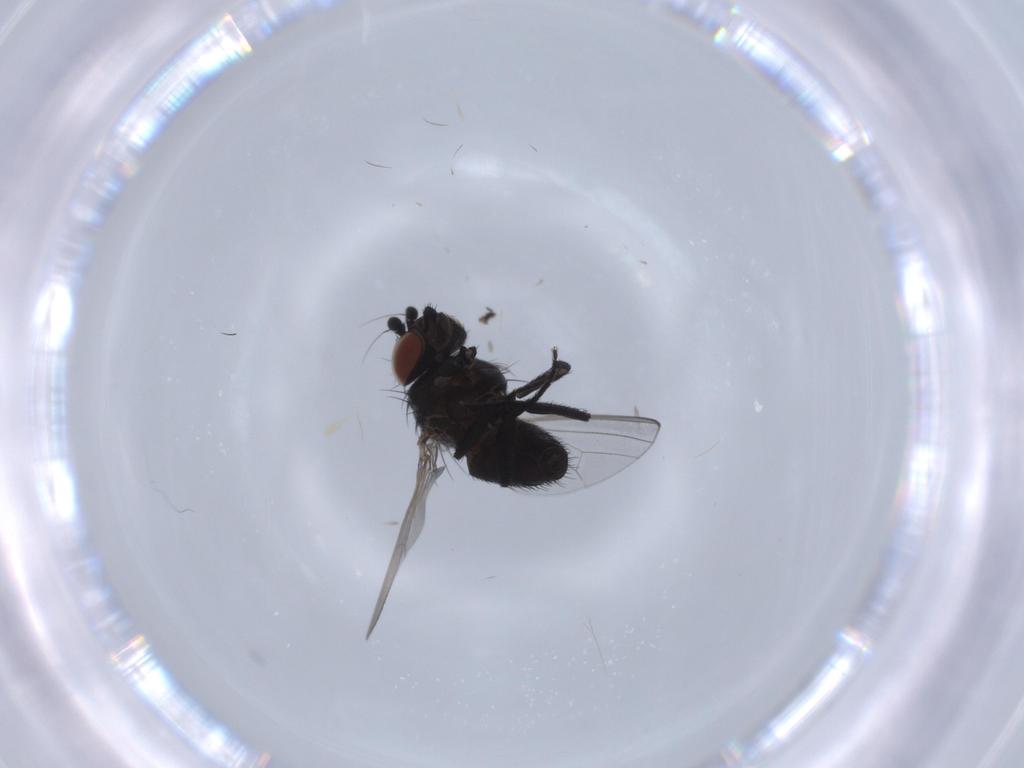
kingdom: Animalia
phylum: Arthropoda
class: Insecta
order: Diptera
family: Milichiidae
